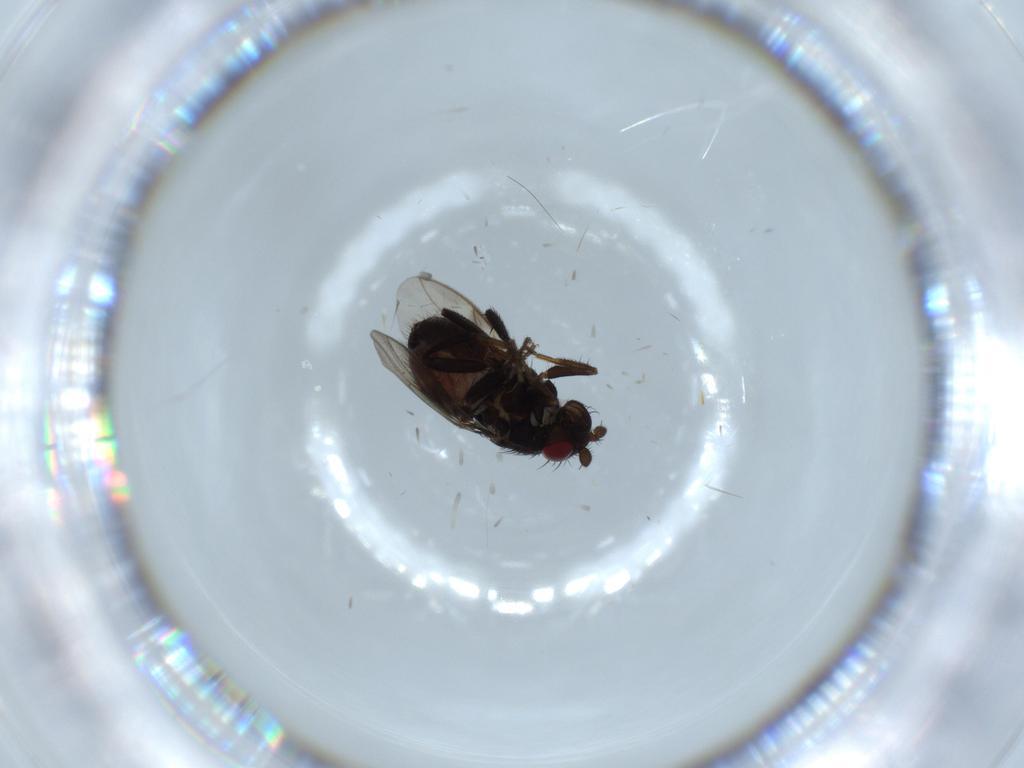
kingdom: Animalia
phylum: Arthropoda
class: Insecta
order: Diptera
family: Sphaeroceridae
